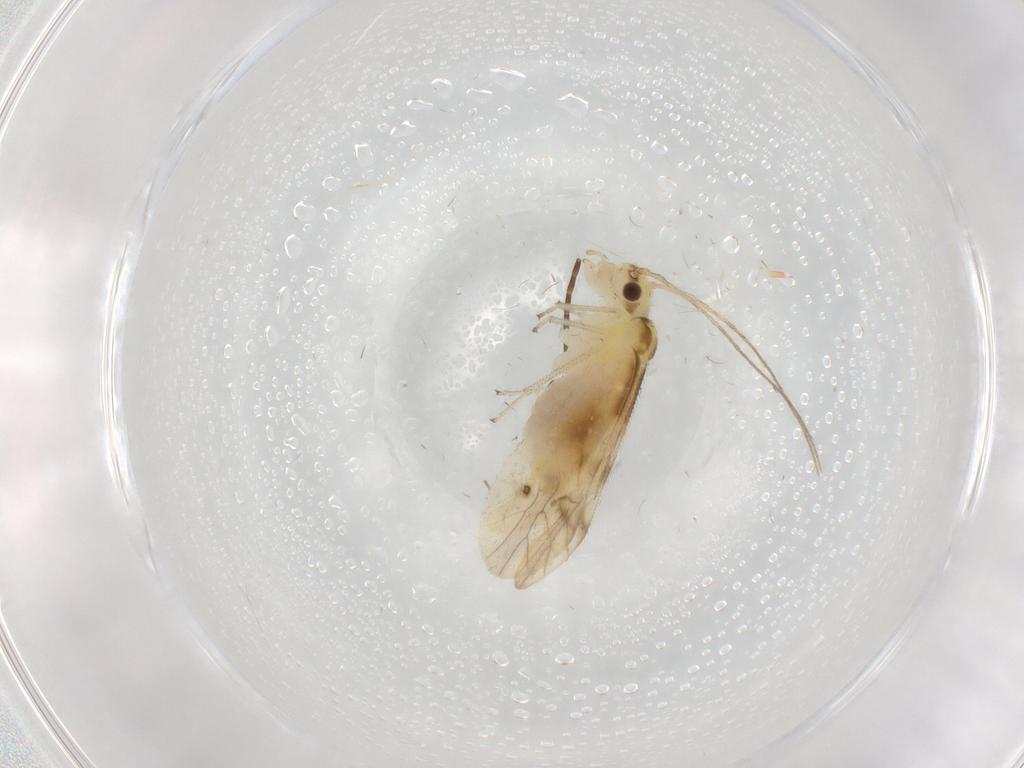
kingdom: Animalia
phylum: Arthropoda
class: Insecta
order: Psocodea
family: Caeciliusidae
